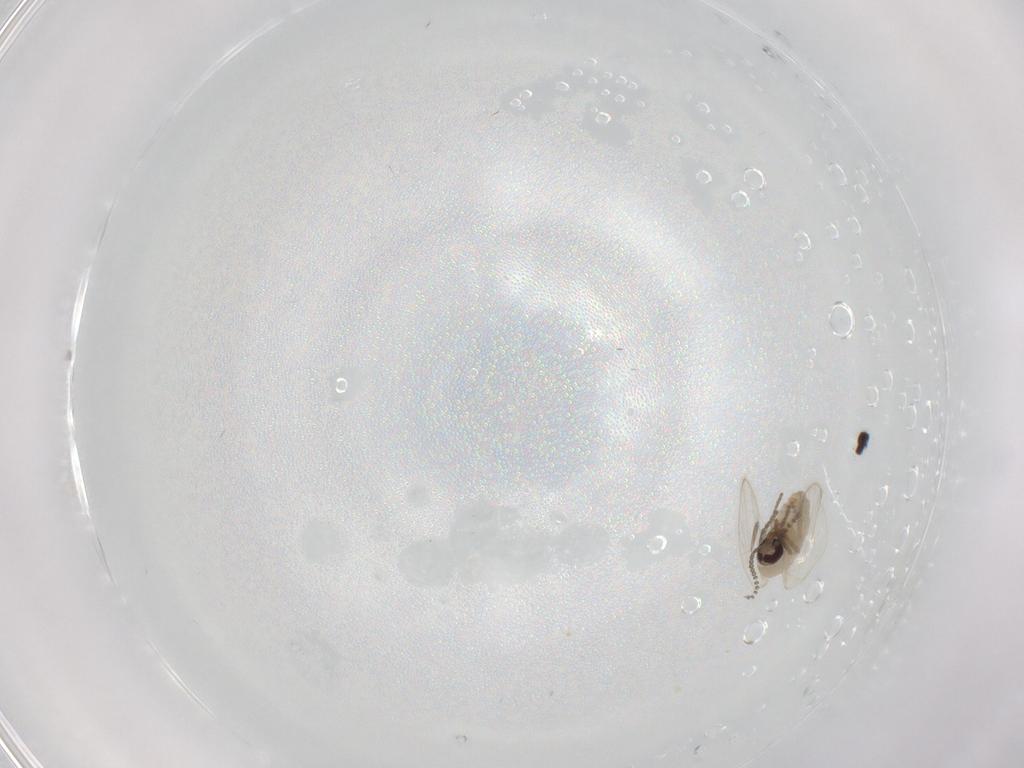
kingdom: Animalia
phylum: Arthropoda
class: Insecta
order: Diptera
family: Psychodidae
